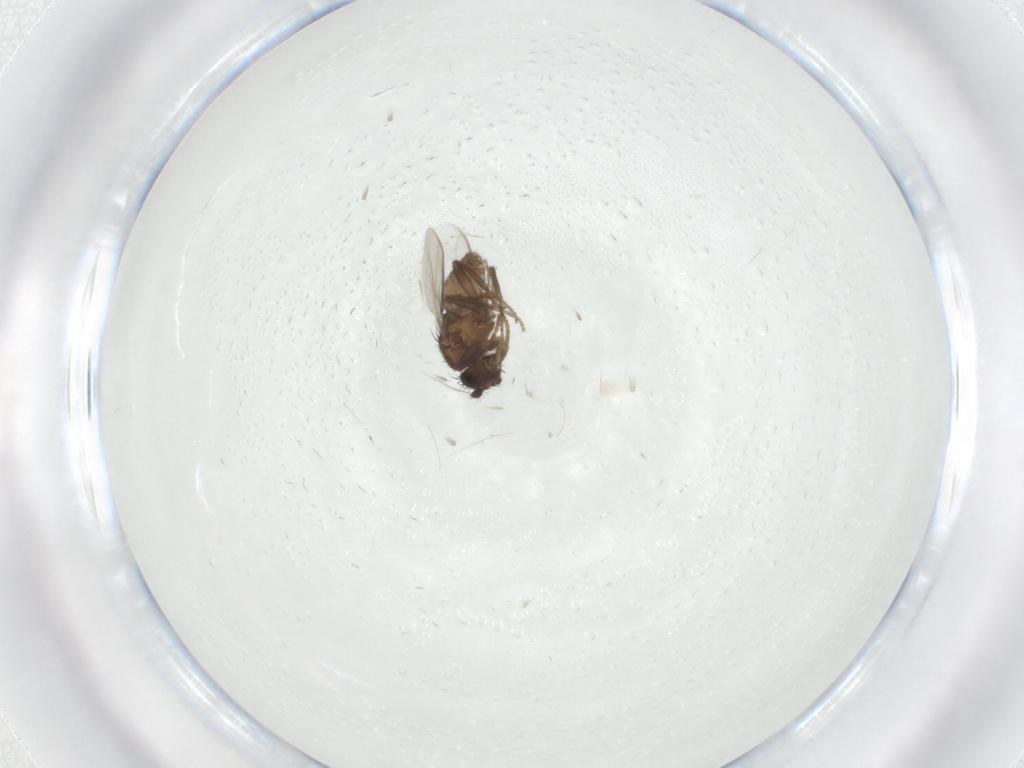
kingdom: Animalia
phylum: Arthropoda
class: Insecta
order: Diptera
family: Sphaeroceridae
